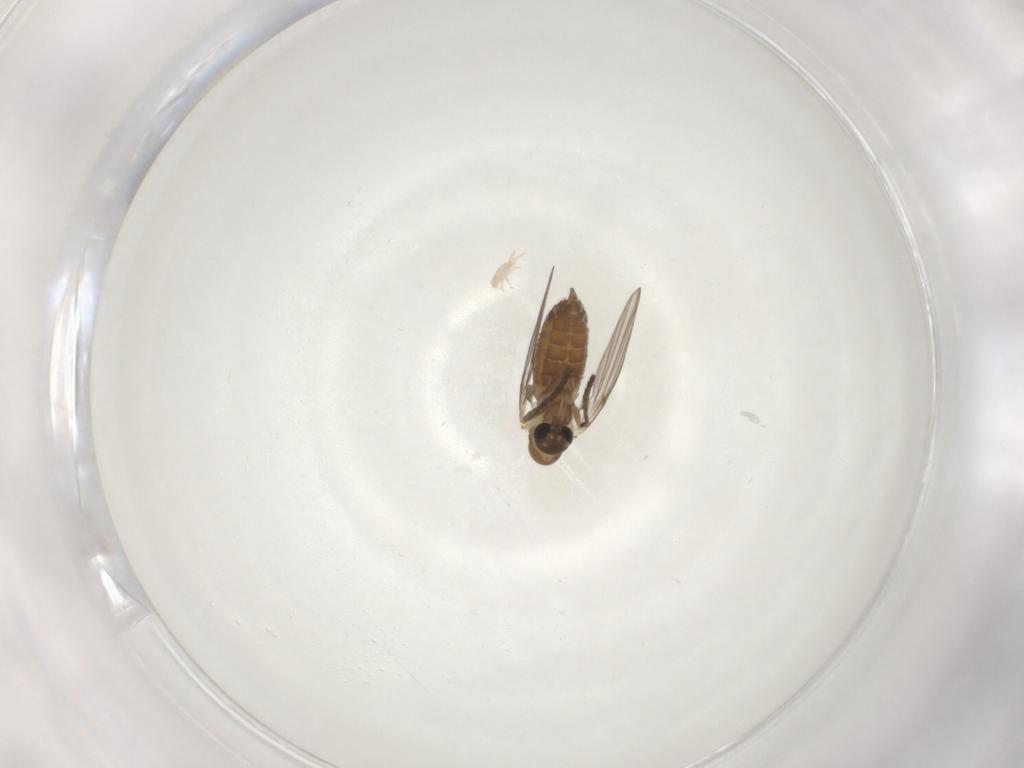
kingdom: Animalia
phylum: Arthropoda
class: Insecta
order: Diptera
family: Psychodidae
